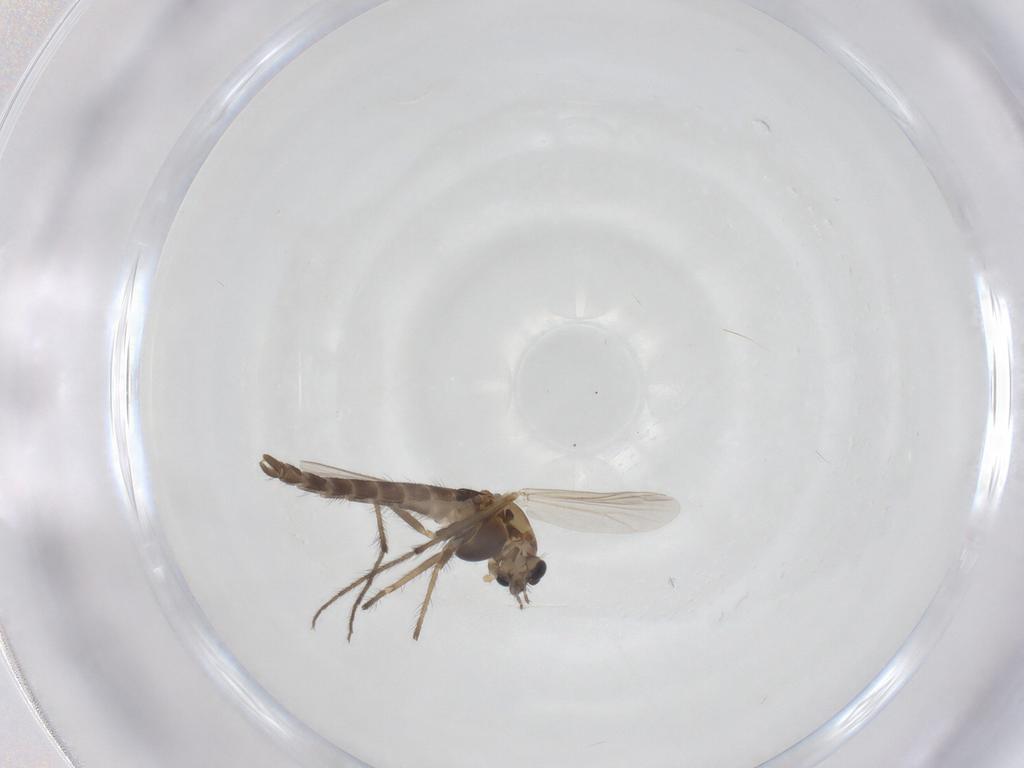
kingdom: Animalia
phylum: Arthropoda
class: Insecta
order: Diptera
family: Chironomidae
